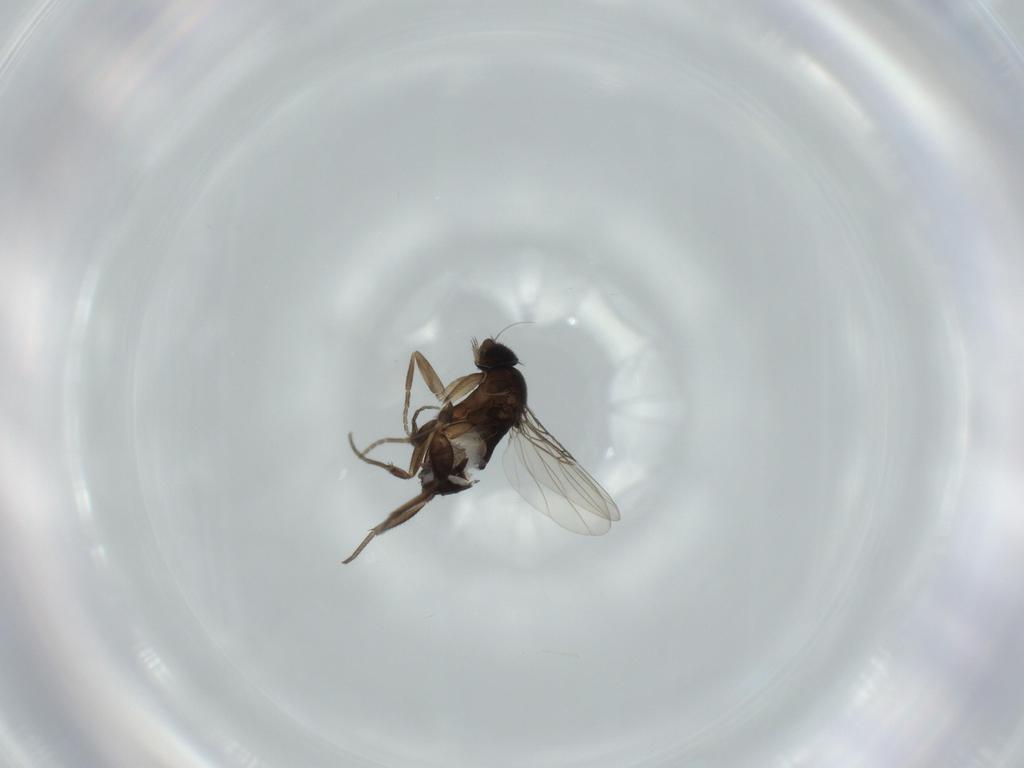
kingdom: Animalia
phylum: Arthropoda
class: Insecta
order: Diptera
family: Phoridae
